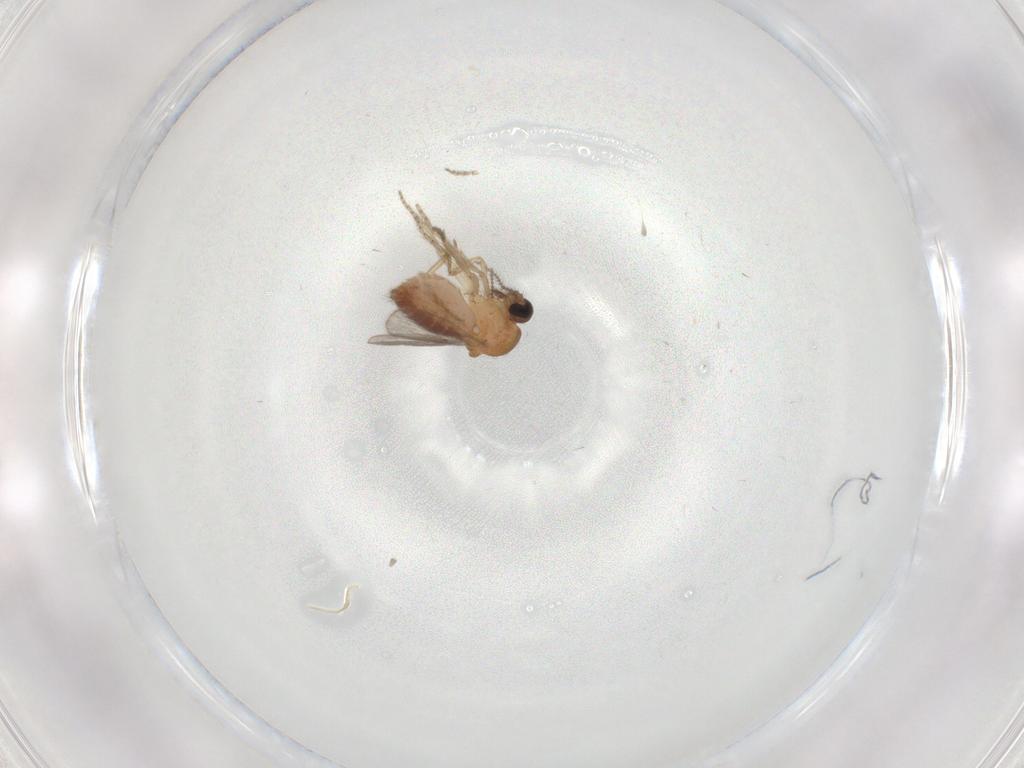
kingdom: Animalia
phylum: Arthropoda
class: Insecta
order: Diptera
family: Ceratopogonidae
